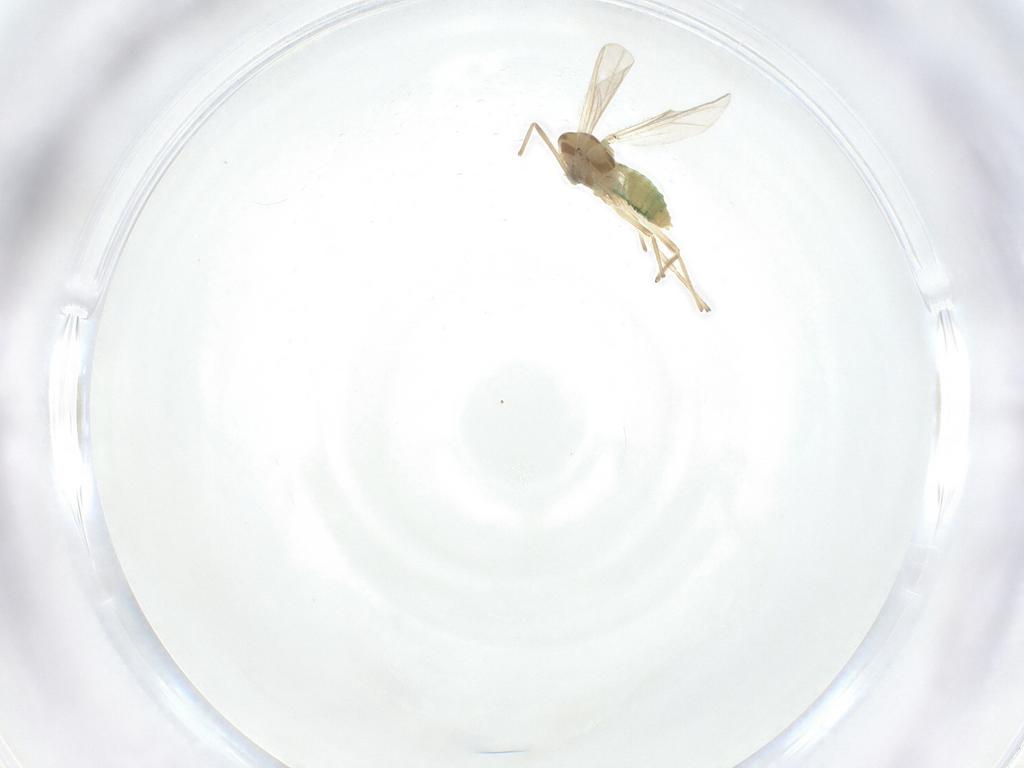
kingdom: Animalia
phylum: Arthropoda
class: Insecta
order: Diptera
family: Chironomidae
